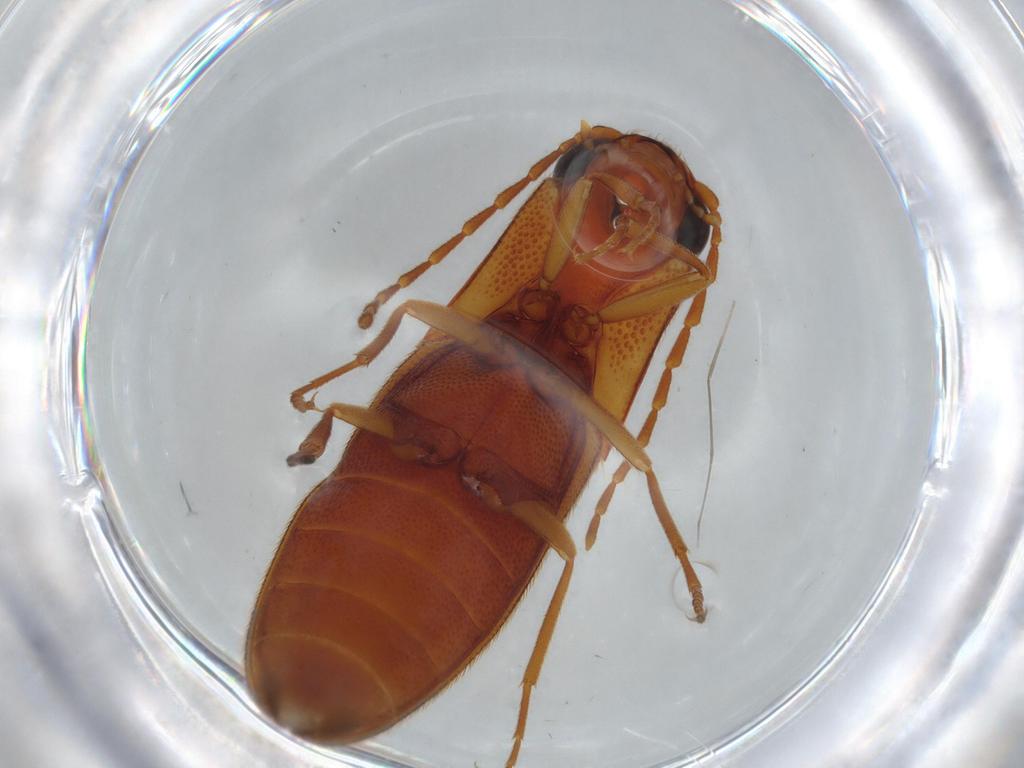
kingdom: Animalia
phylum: Arthropoda
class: Insecta
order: Coleoptera
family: Elateridae
